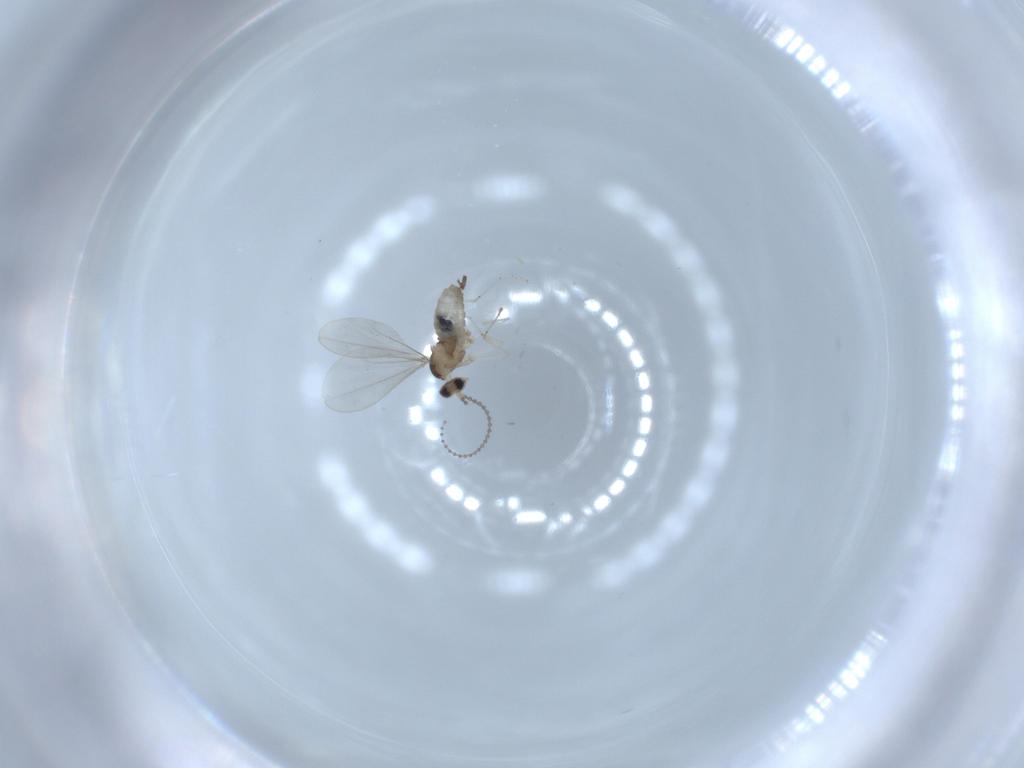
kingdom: Animalia
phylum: Arthropoda
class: Insecta
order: Diptera
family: Cecidomyiidae
